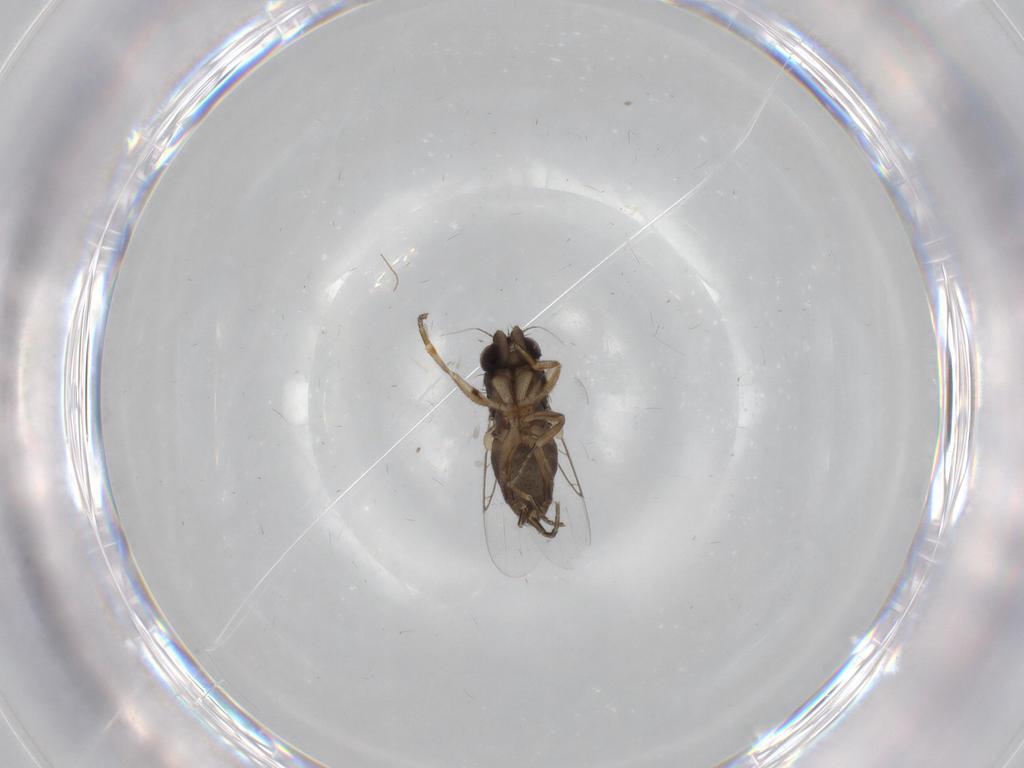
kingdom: Animalia
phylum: Arthropoda
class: Insecta
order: Diptera
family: Phoridae
